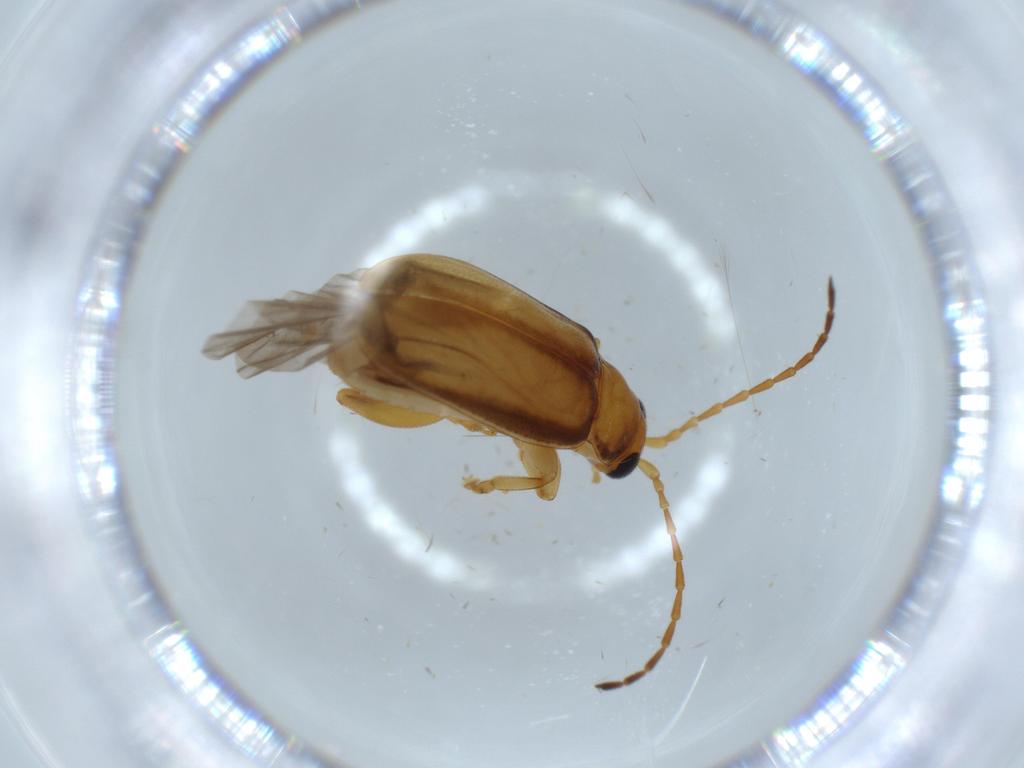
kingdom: Animalia
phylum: Arthropoda
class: Insecta
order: Coleoptera
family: Chrysomelidae
